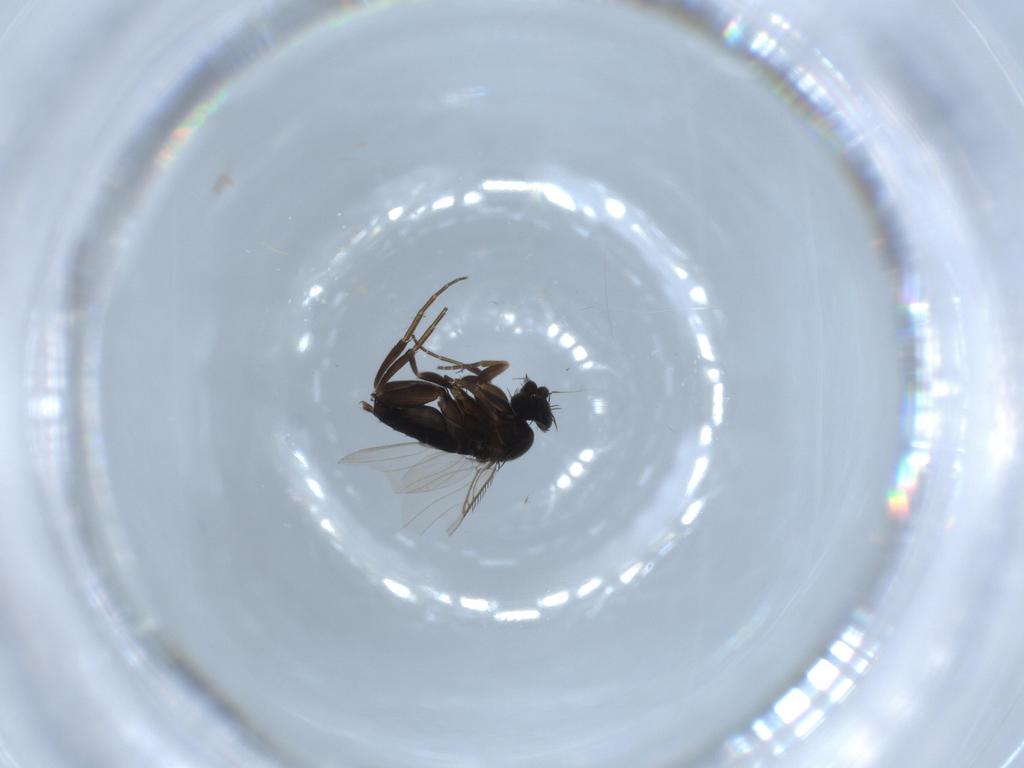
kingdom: Animalia
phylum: Arthropoda
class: Insecta
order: Diptera
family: Phoridae
